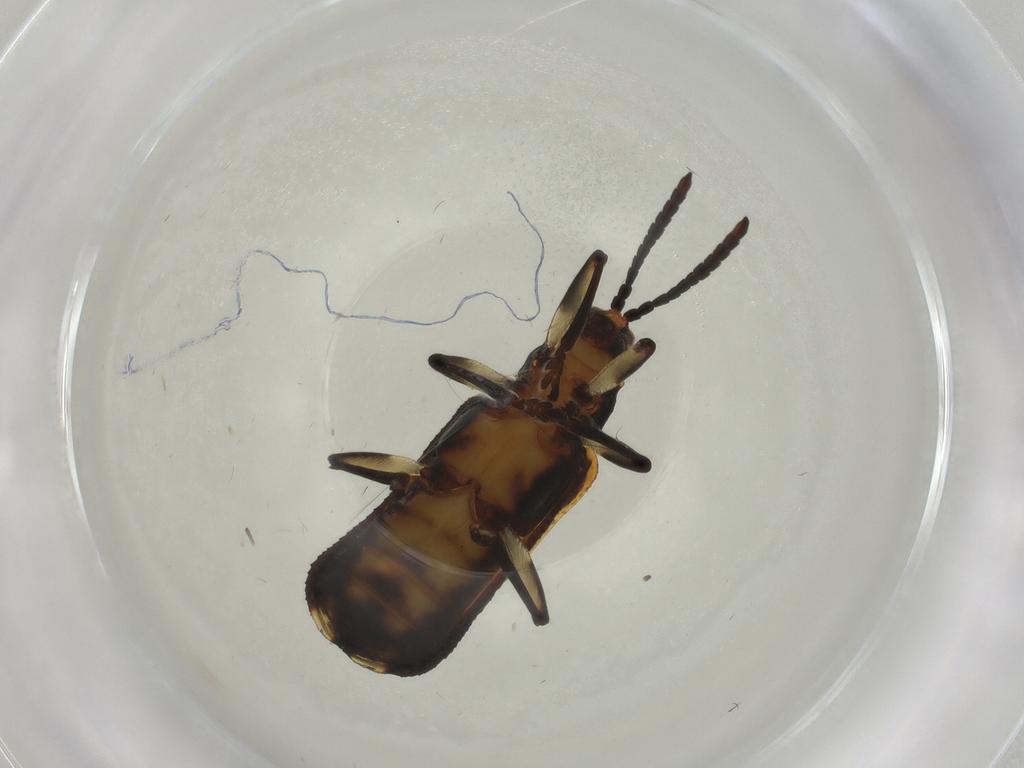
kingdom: Animalia
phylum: Arthropoda
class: Insecta
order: Coleoptera
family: Chrysomelidae
